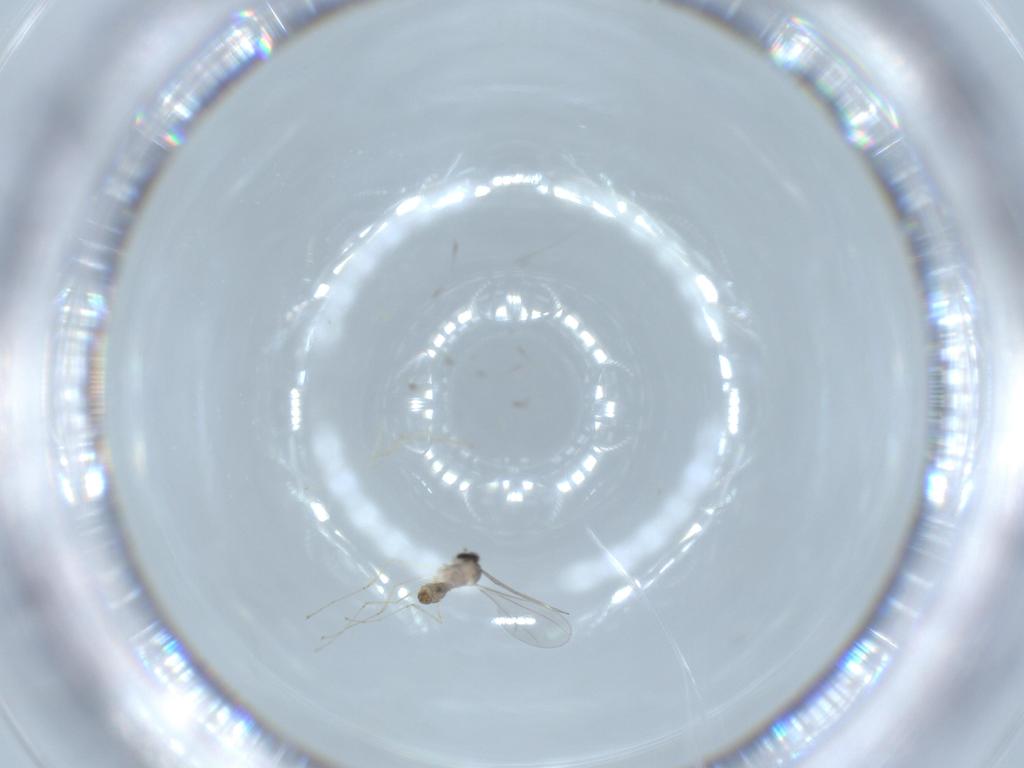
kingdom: Animalia
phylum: Arthropoda
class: Insecta
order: Diptera
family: Cecidomyiidae
